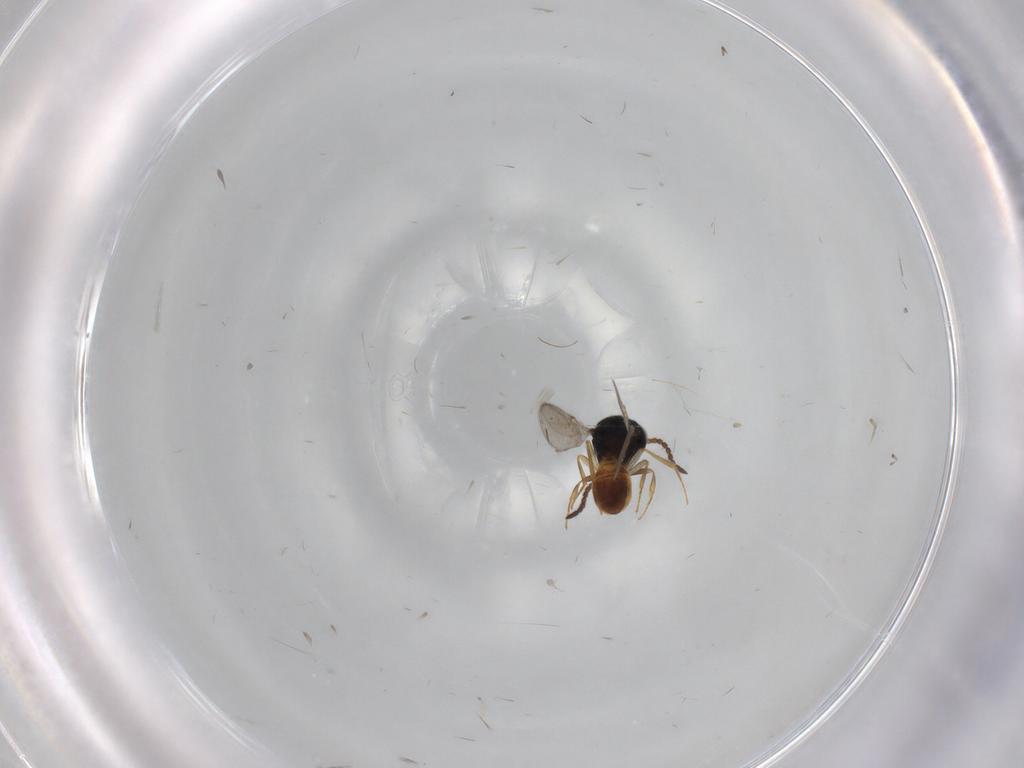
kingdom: Animalia
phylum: Arthropoda
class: Insecta
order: Hymenoptera
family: Scelionidae
